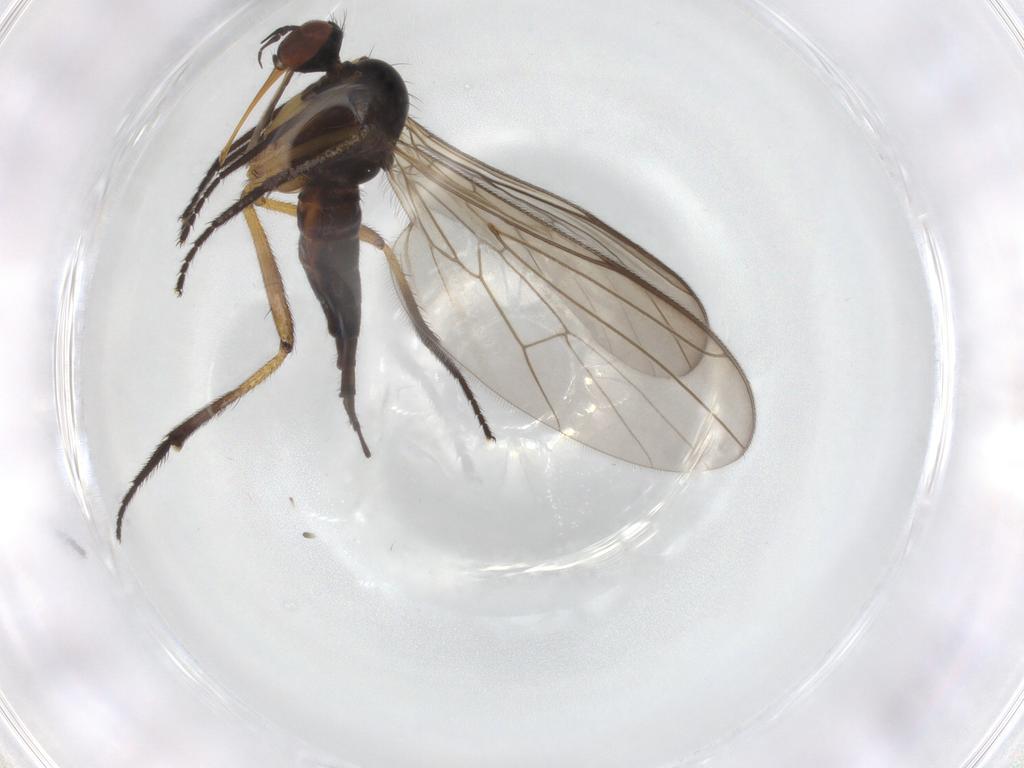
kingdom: Animalia
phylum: Arthropoda
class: Insecta
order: Diptera
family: Empididae
